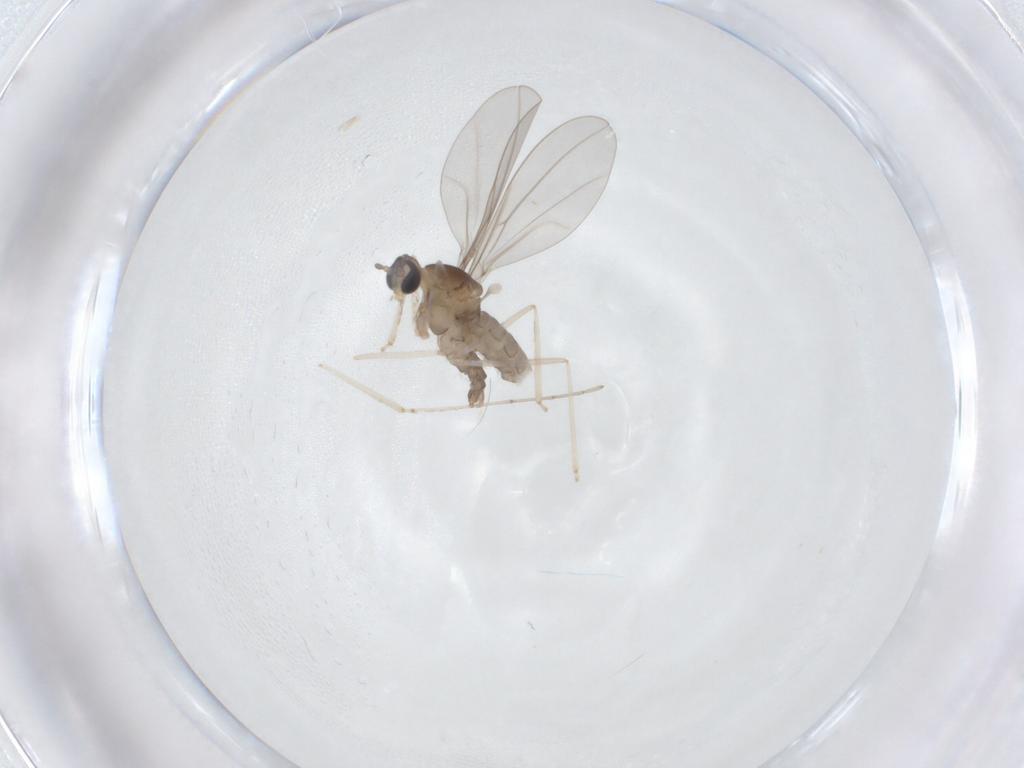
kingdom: Animalia
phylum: Arthropoda
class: Insecta
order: Diptera
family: Cecidomyiidae
